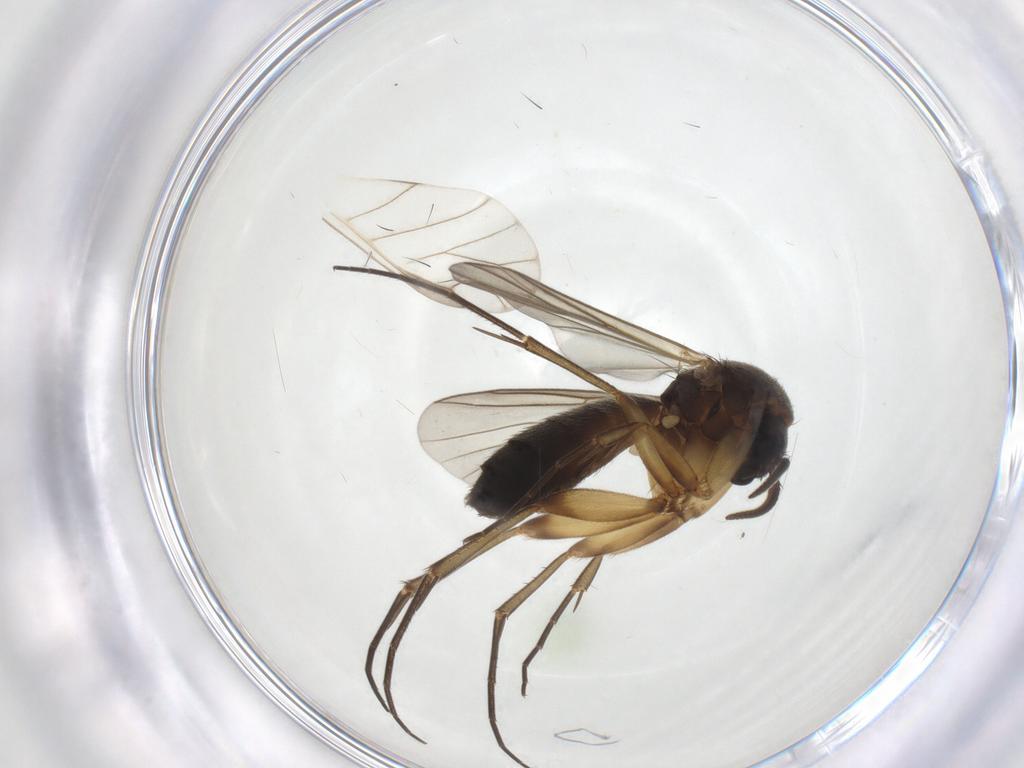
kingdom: Animalia
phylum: Arthropoda
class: Insecta
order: Diptera
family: Mycetophilidae
